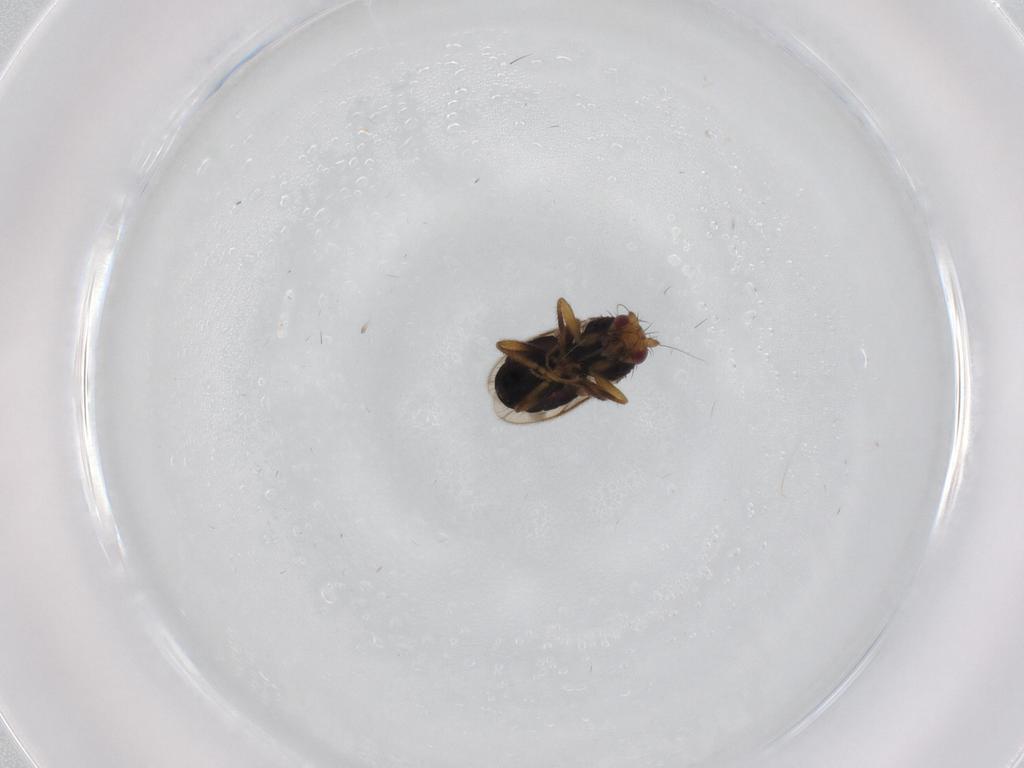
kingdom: Animalia
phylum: Arthropoda
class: Insecta
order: Diptera
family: Sphaeroceridae
